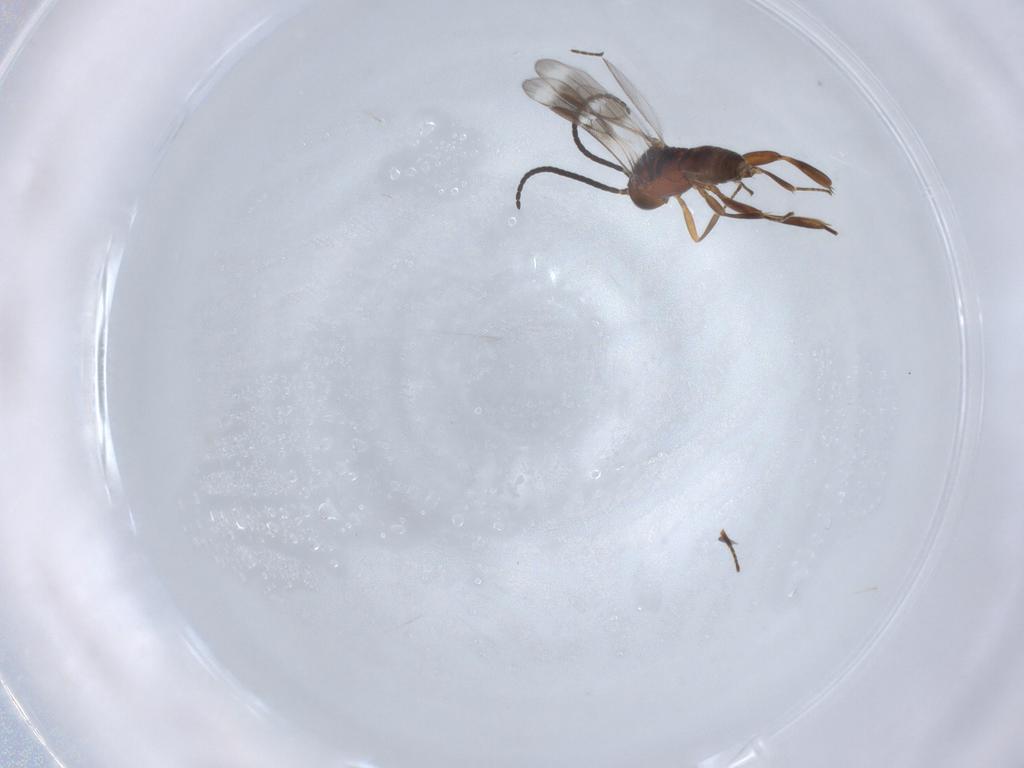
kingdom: Animalia
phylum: Arthropoda
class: Insecta
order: Hymenoptera
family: Braconidae
